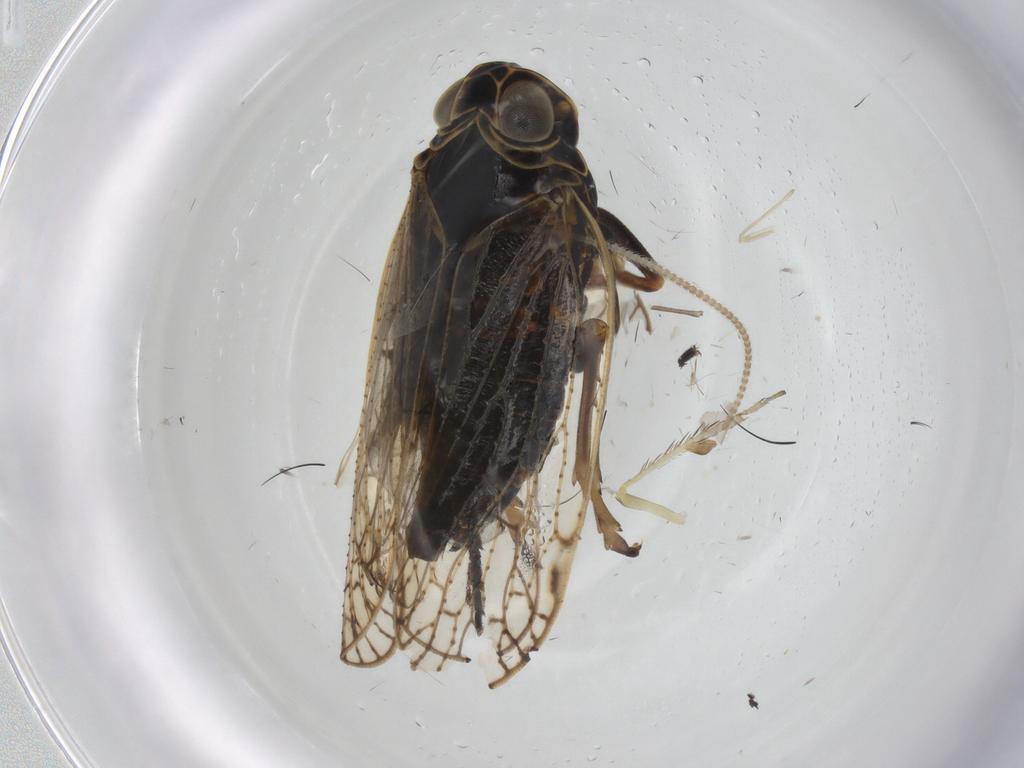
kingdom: Animalia
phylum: Arthropoda
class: Insecta
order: Hemiptera
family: Cixiidae
